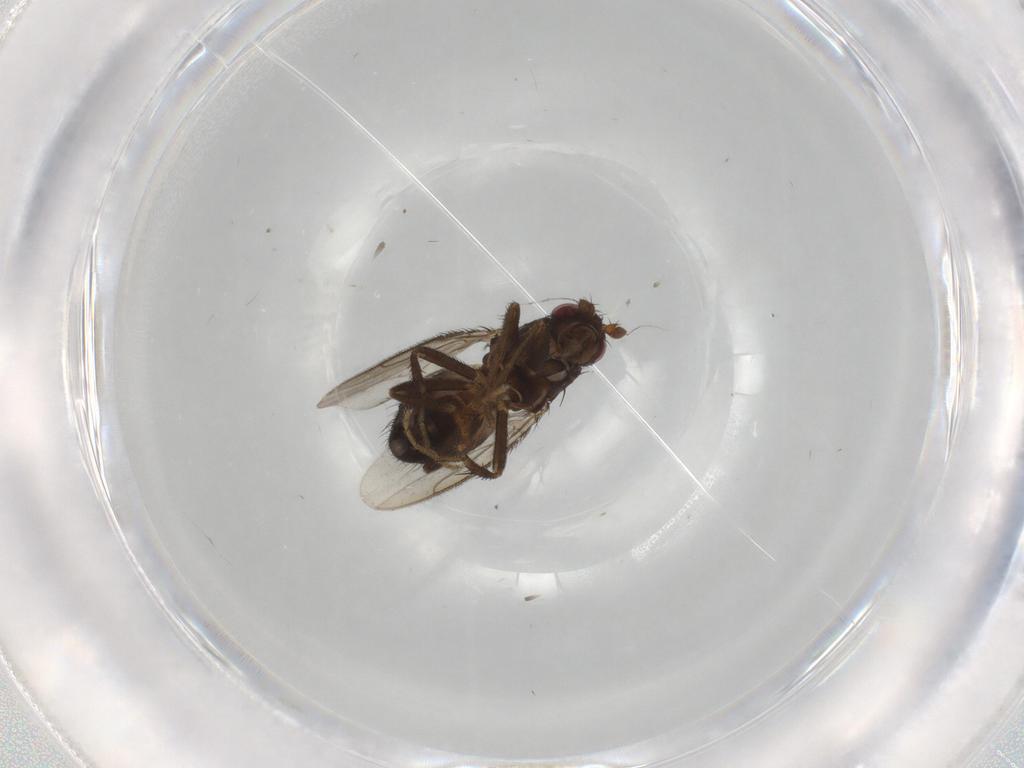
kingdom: Animalia
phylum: Arthropoda
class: Insecta
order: Diptera
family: Sphaeroceridae
